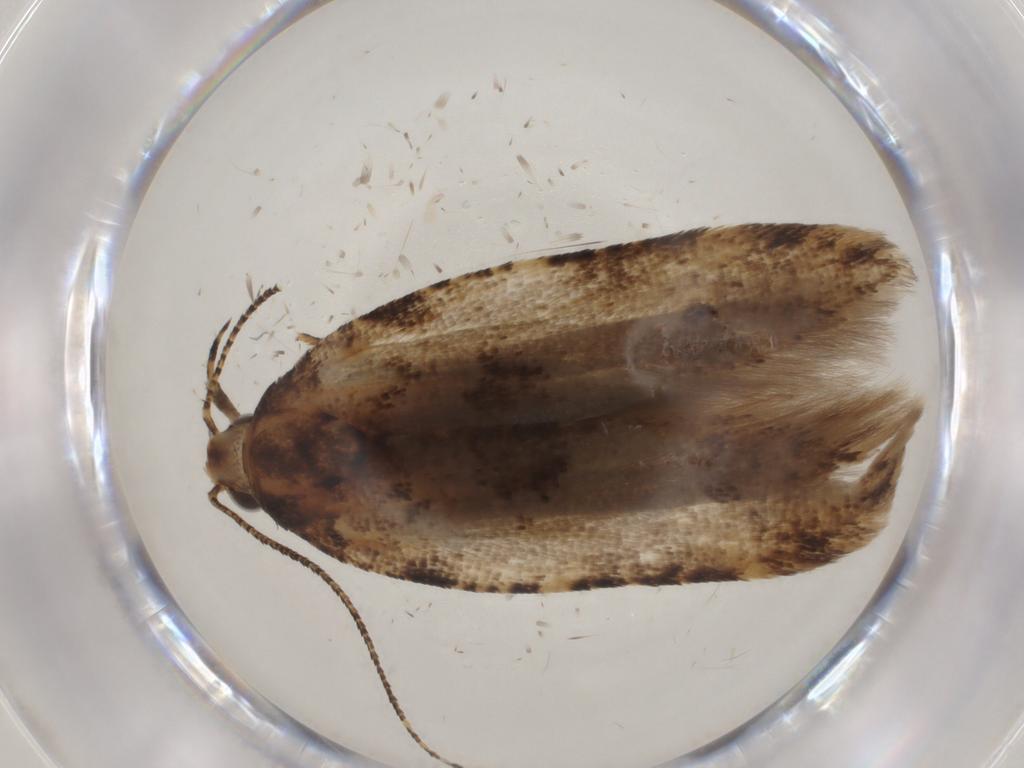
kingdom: Animalia
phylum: Arthropoda
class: Insecta
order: Lepidoptera
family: Gelechiidae
